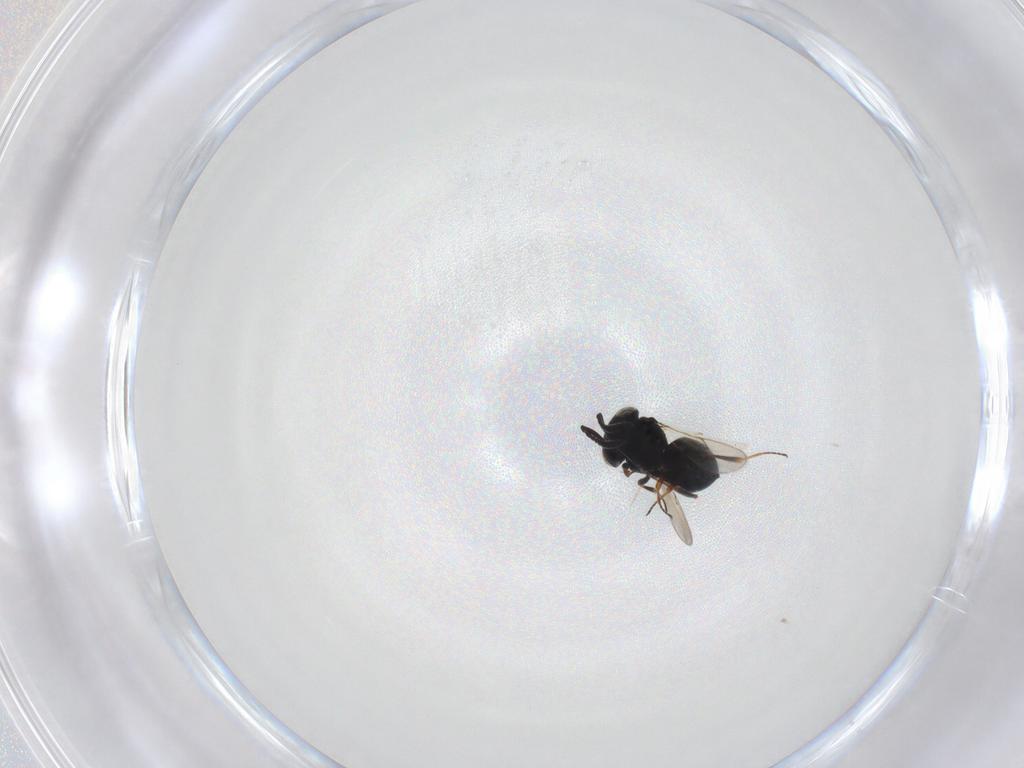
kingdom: Animalia
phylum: Arthropoda
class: Insecta
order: Hymenoptera
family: Scelionidae
